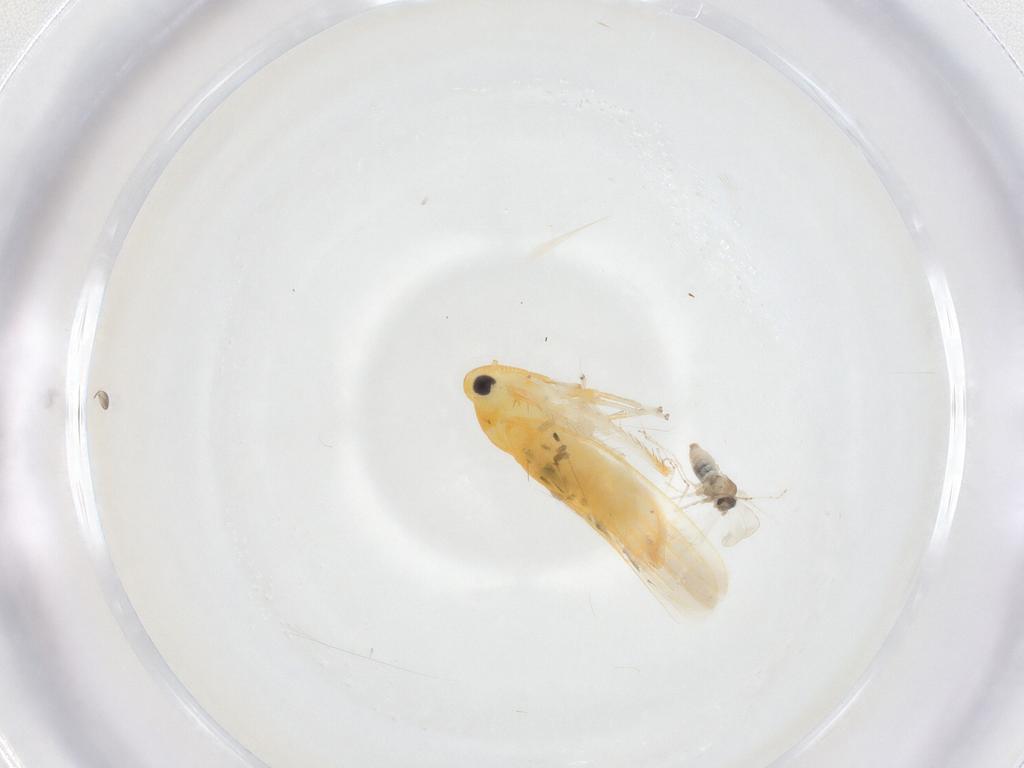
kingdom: Animalia
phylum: Arthropoda
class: Insecta
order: Diptera
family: Cecidomyiidae
